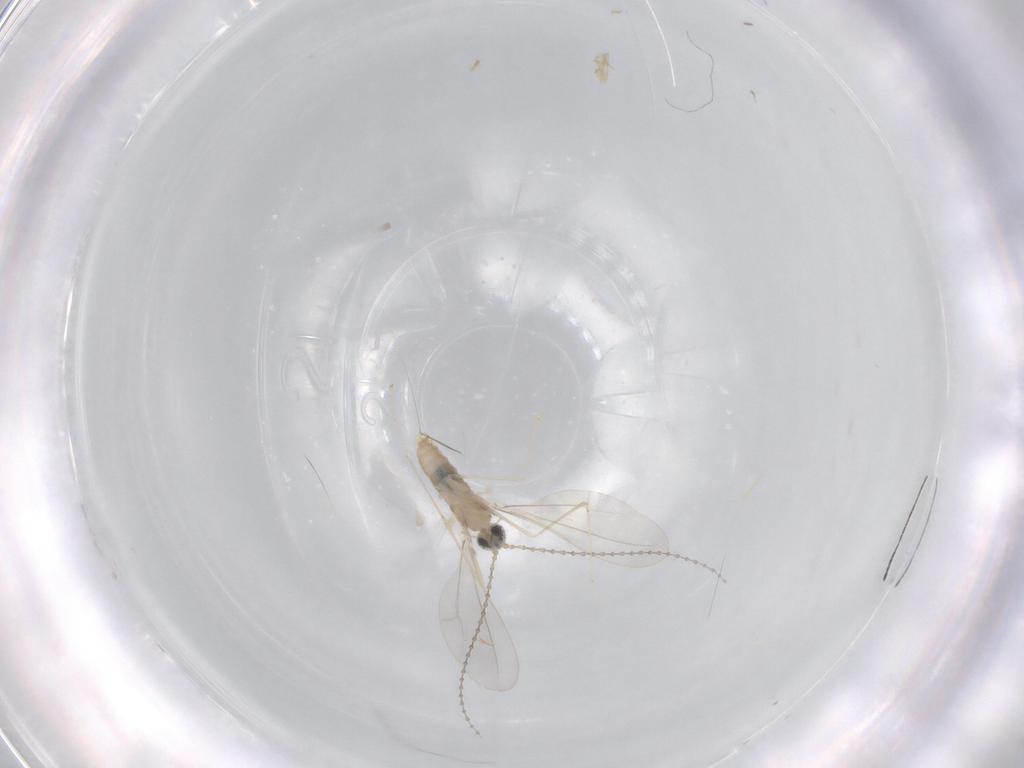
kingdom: Animalia
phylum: Arthropoda
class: Insecta
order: Diptera
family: Cecidomyiidae
